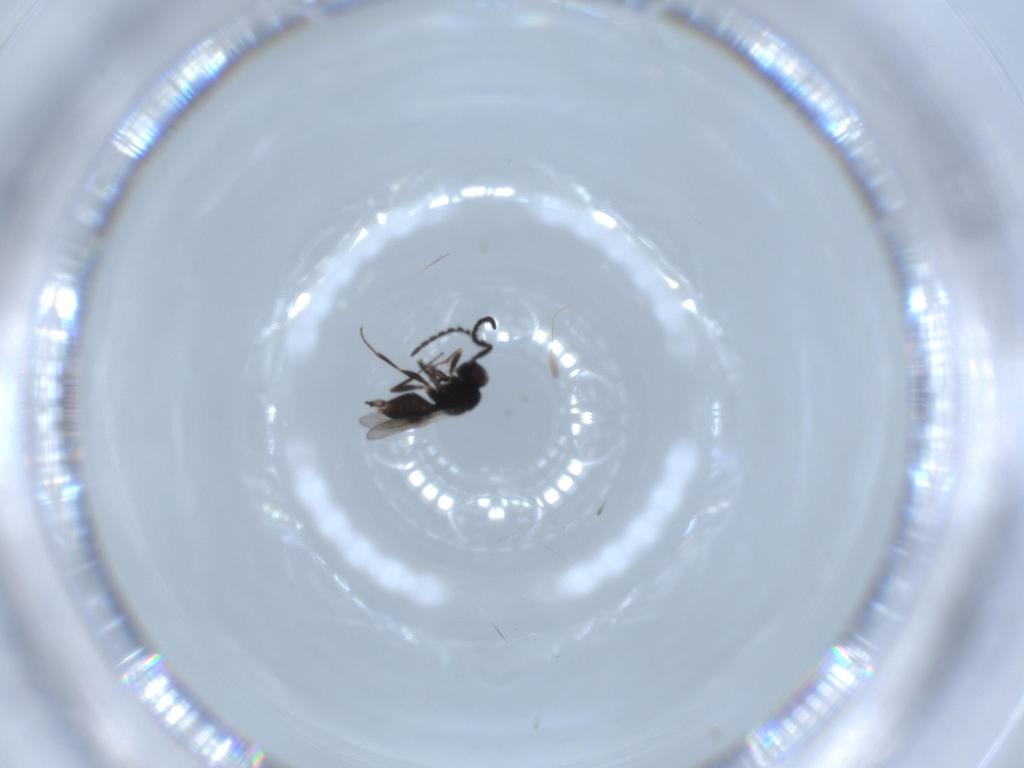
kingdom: Animalia
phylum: Arthropoda
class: Insecta
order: Hymenoptera
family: Megaspilidae
